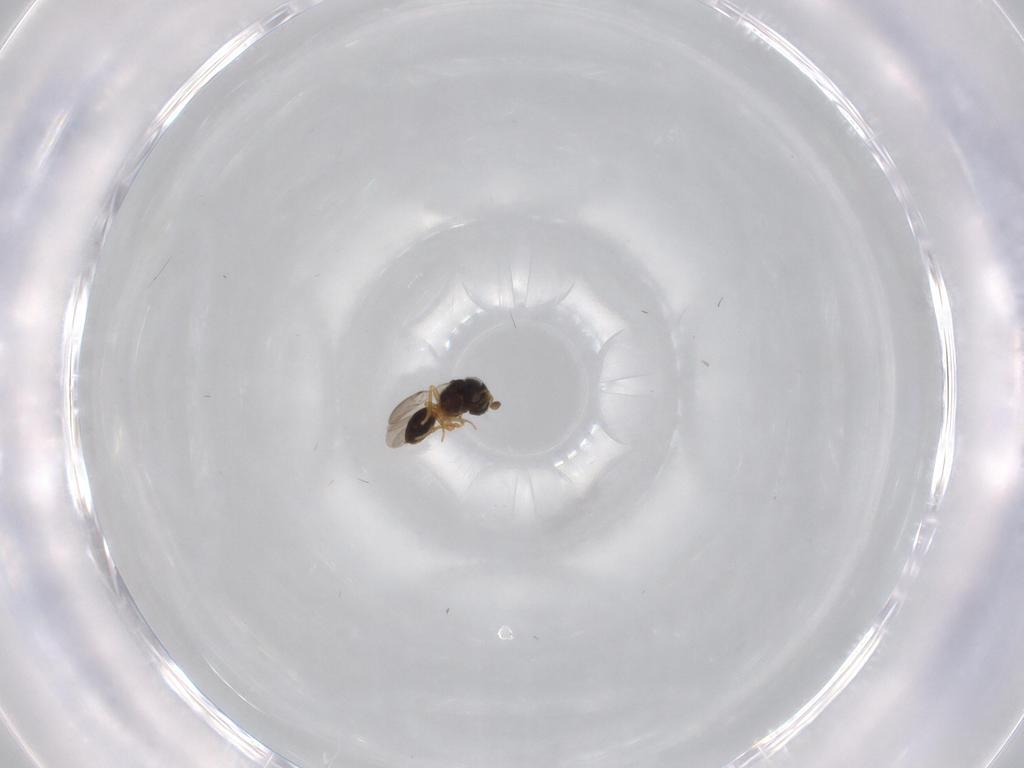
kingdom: Animalia
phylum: Arthropoda
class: Insecta
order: Hymenoptera
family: Scelionidae
